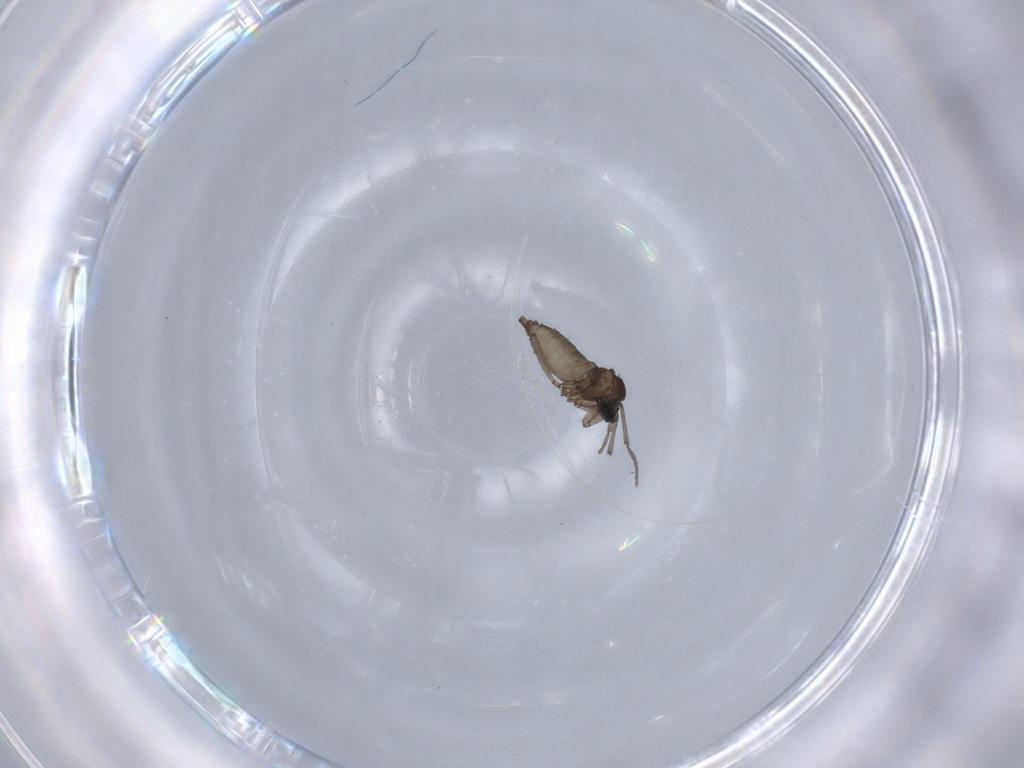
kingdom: Animalia
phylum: Arthropoda
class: Insecta
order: Diptera
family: Sciaridae
